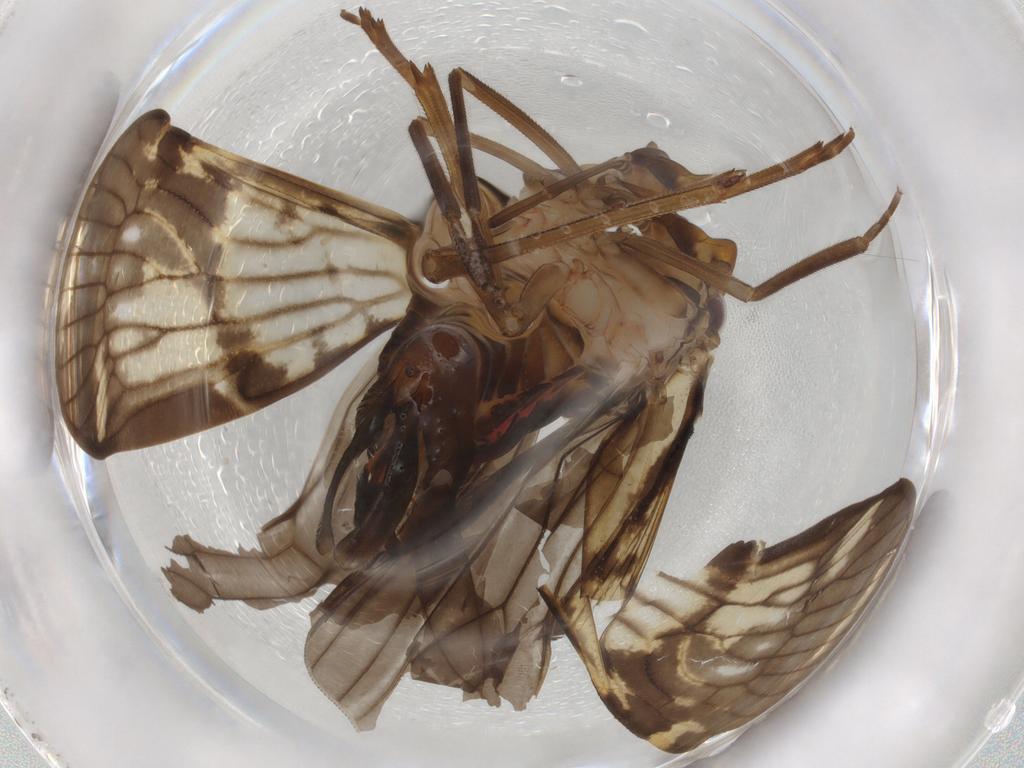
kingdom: Animalia
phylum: Arthropoda
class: Insecta
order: Hemiptera
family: Cixiidae
